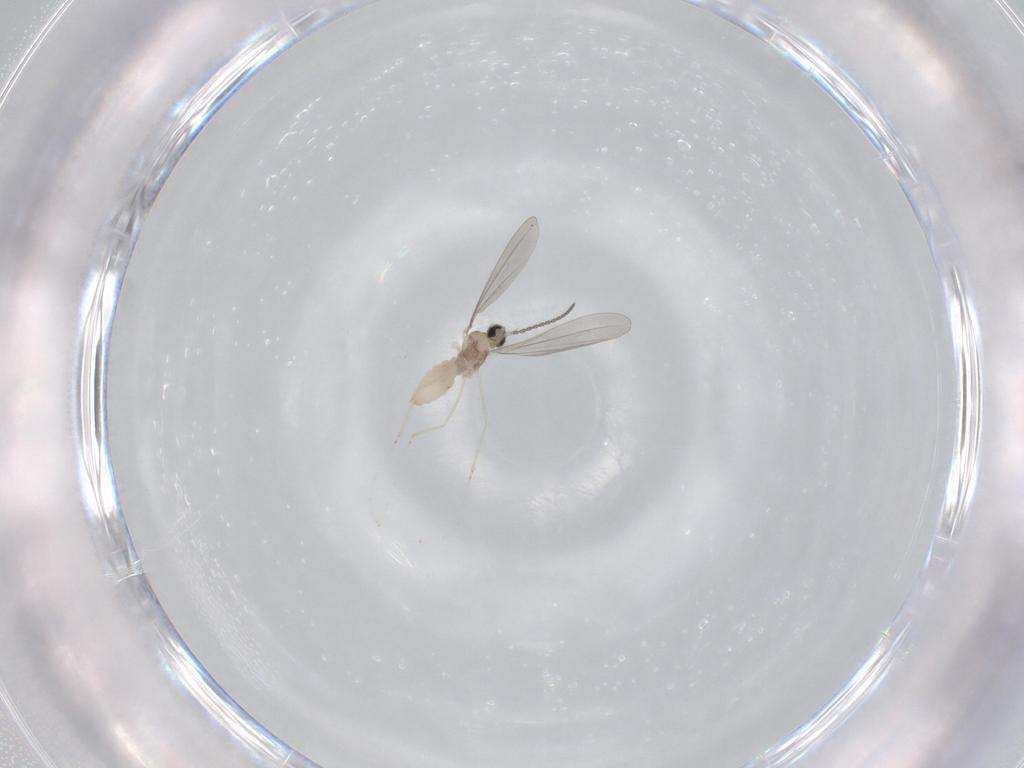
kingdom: Animalia
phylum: Arthropoda
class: Insecta
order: Diptera
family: Cecidomyiidae
